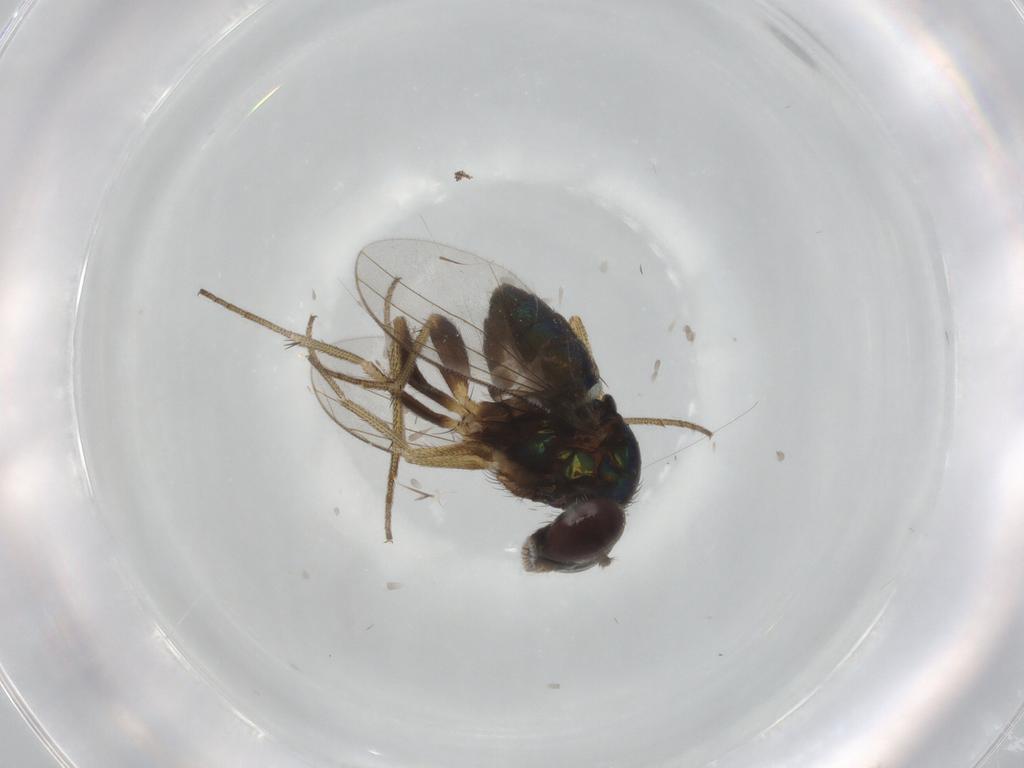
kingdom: Animalia
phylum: Arthropoda
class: Insecta
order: Diptera
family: Dolichopodidae
